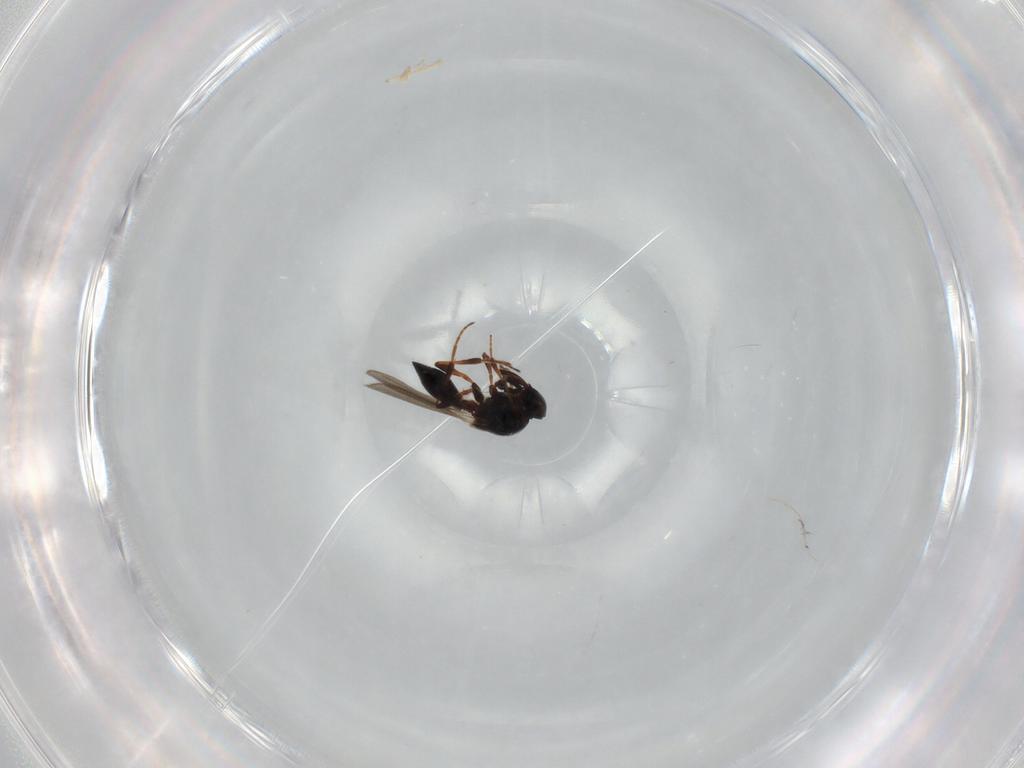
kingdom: Animalia
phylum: Arthropoda
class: Insecta
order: Hymenoptera
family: Platygastridae
